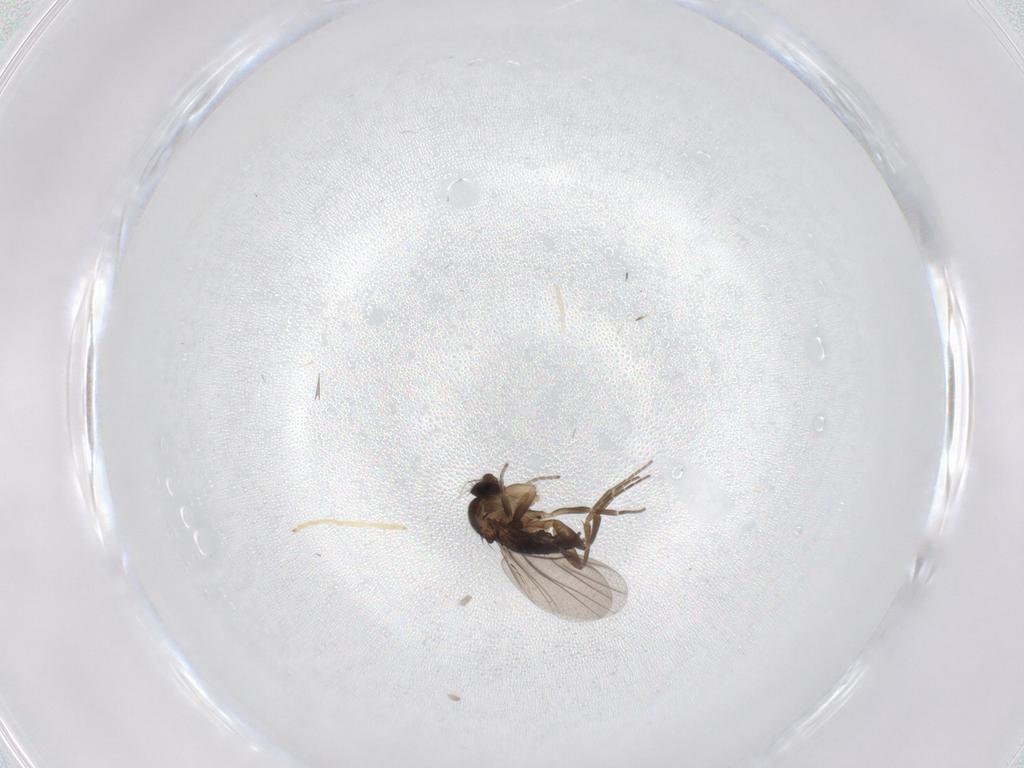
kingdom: Animalia
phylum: Arthropoda
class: Insecta
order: Diptera
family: Phoridae
